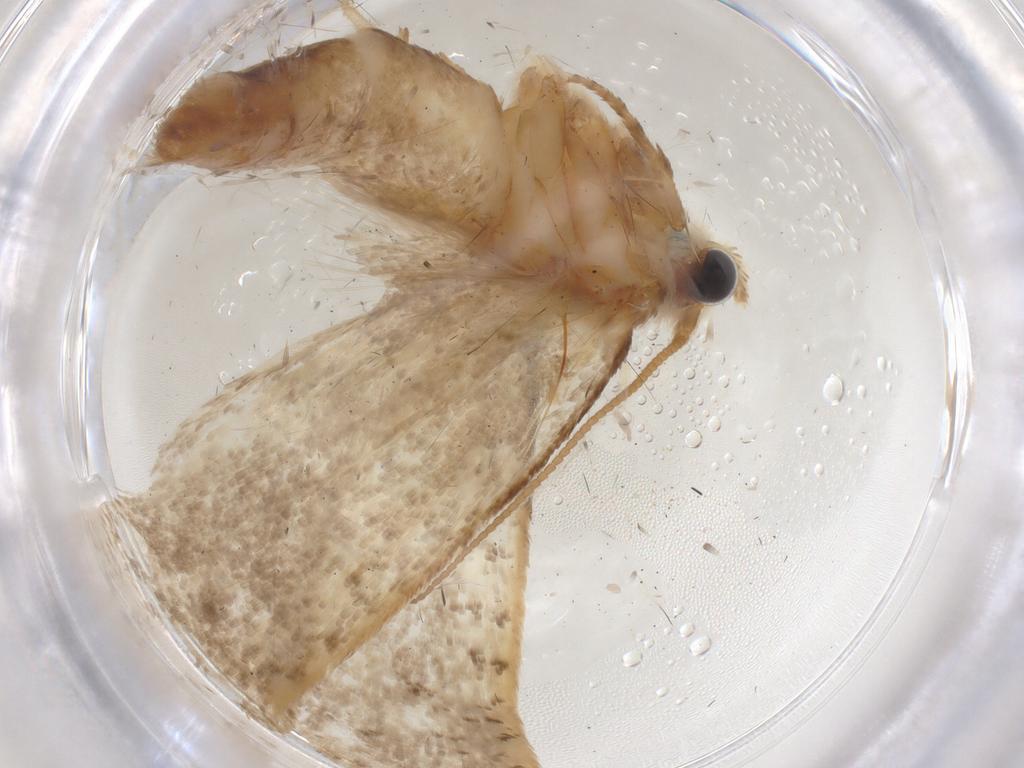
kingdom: Animalia
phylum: Arthropoda
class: Insecta
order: Lepidoptera
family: Tineidae
